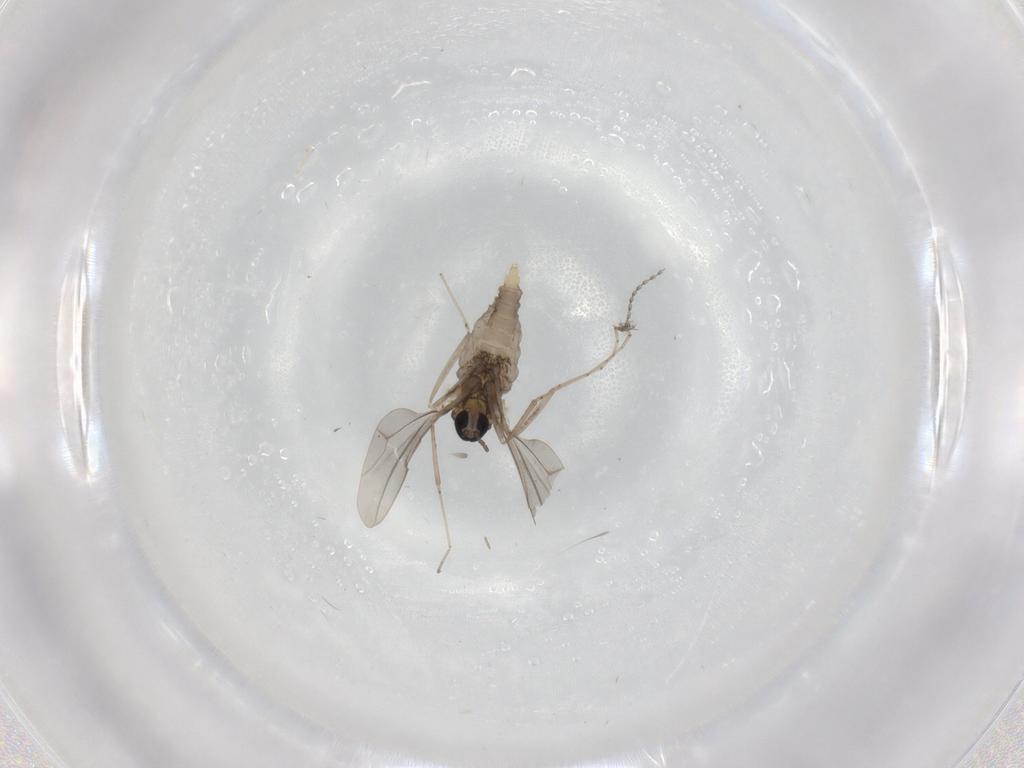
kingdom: Animalia
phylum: Arthropoda
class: Insecta
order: Diptera
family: Cecidomyiidae
